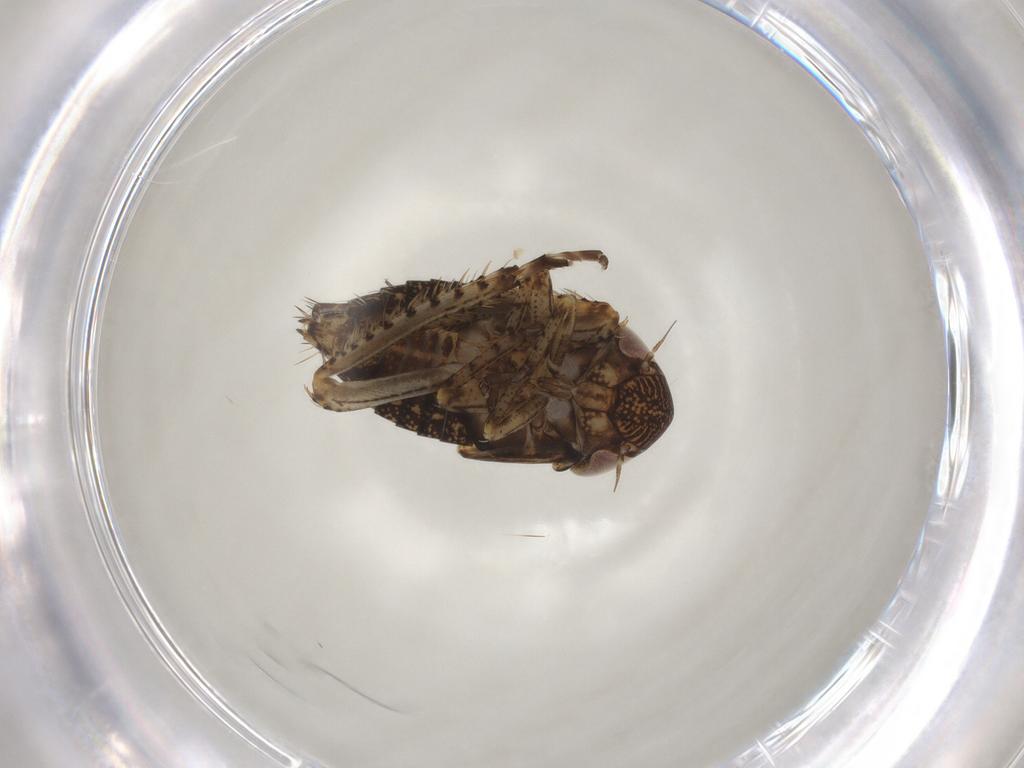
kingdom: Animalia
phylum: Arthropoda
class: Insecta
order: Hemiptera
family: Cicadellidae
